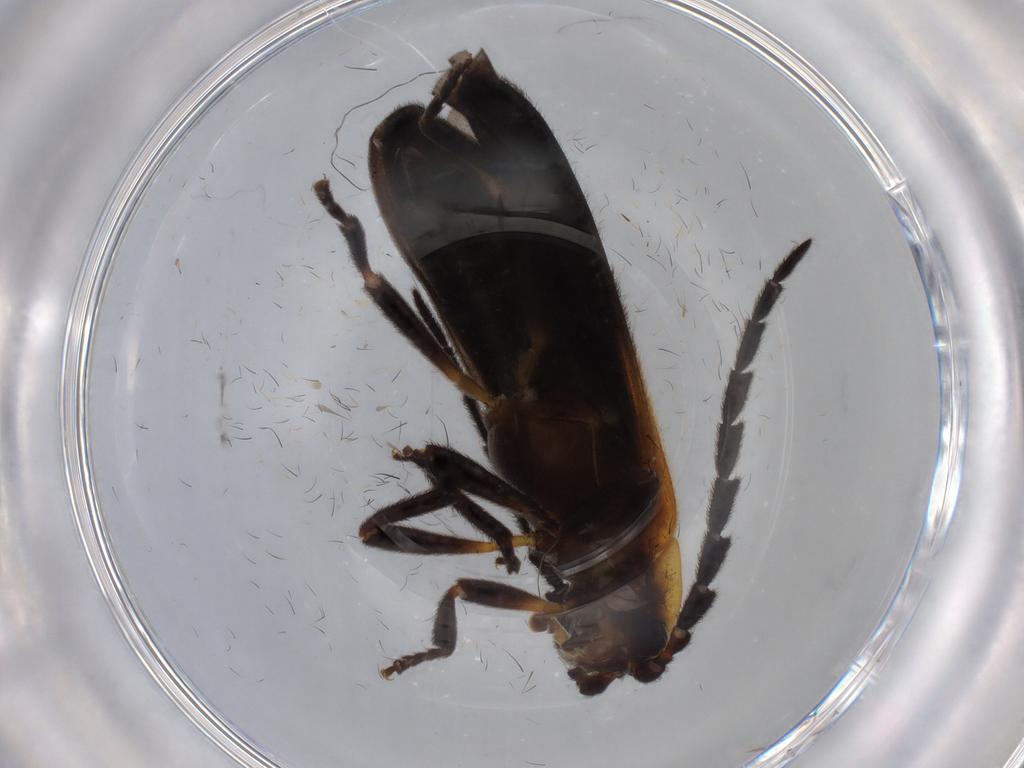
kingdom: Animalia
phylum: Arthropoda
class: Insecta
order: Coleoptera
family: Lycidae
